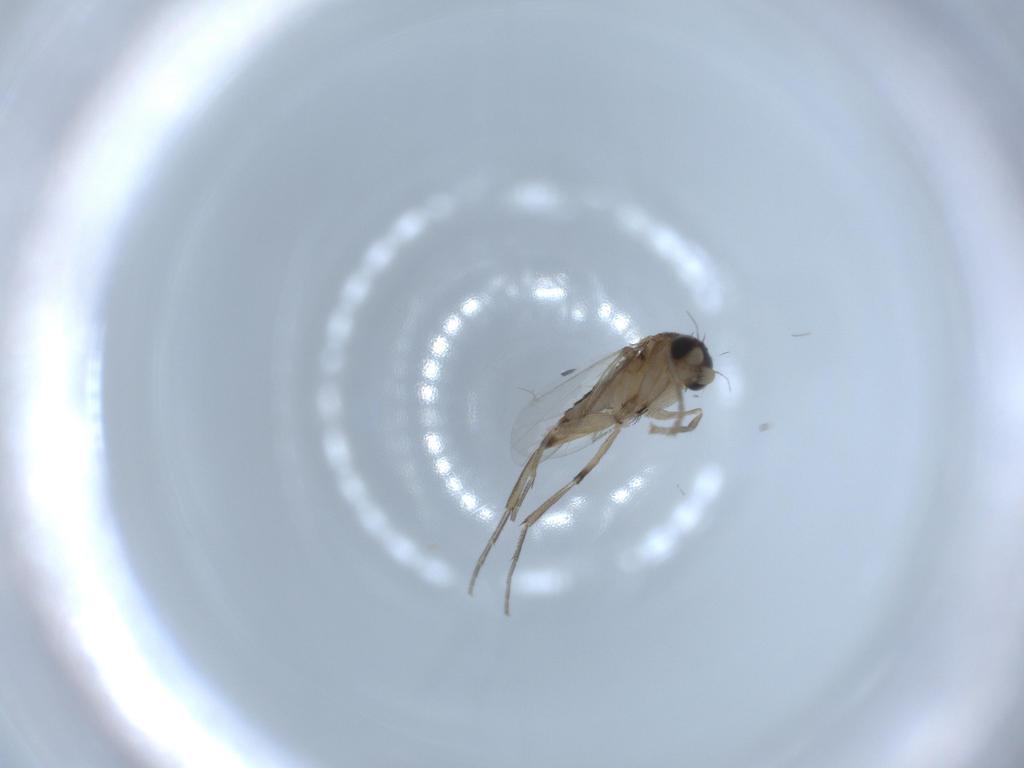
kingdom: Animalia
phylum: Arthropoda
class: Insecta
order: Diptera
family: Phoridae
